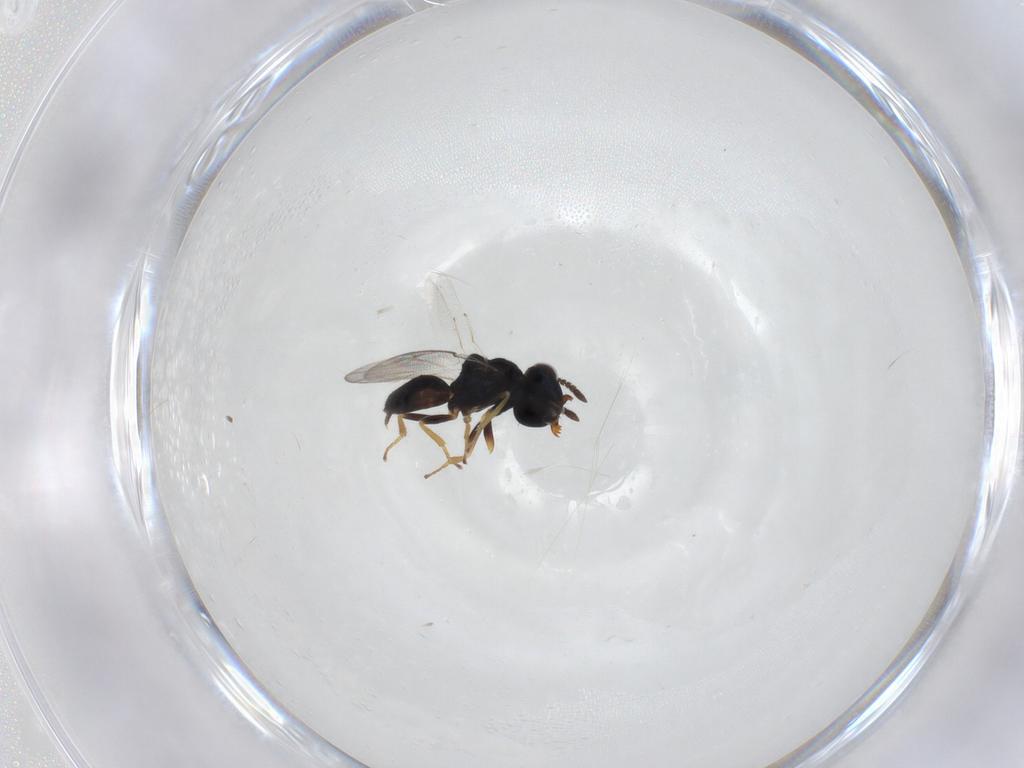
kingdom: Animalia
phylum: Arthropoda
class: Insecta
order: Hymenoptera
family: Pteromalidae
